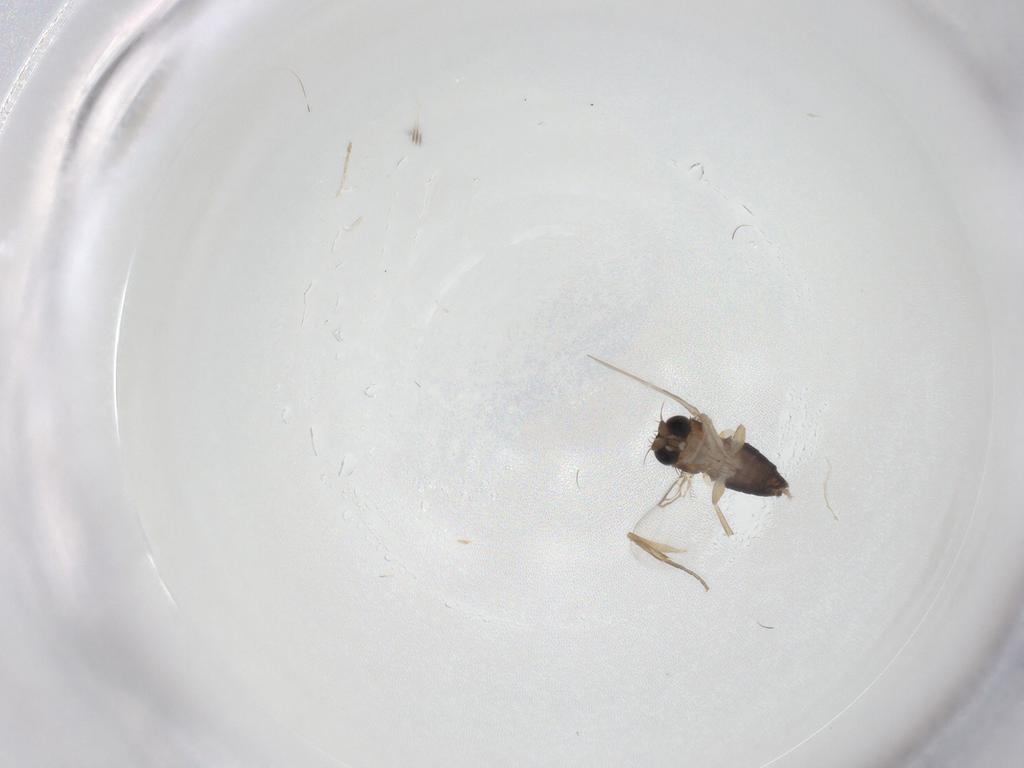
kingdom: Animalia
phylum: Arthropoda
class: Insecta
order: Diptera
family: Phoridae
